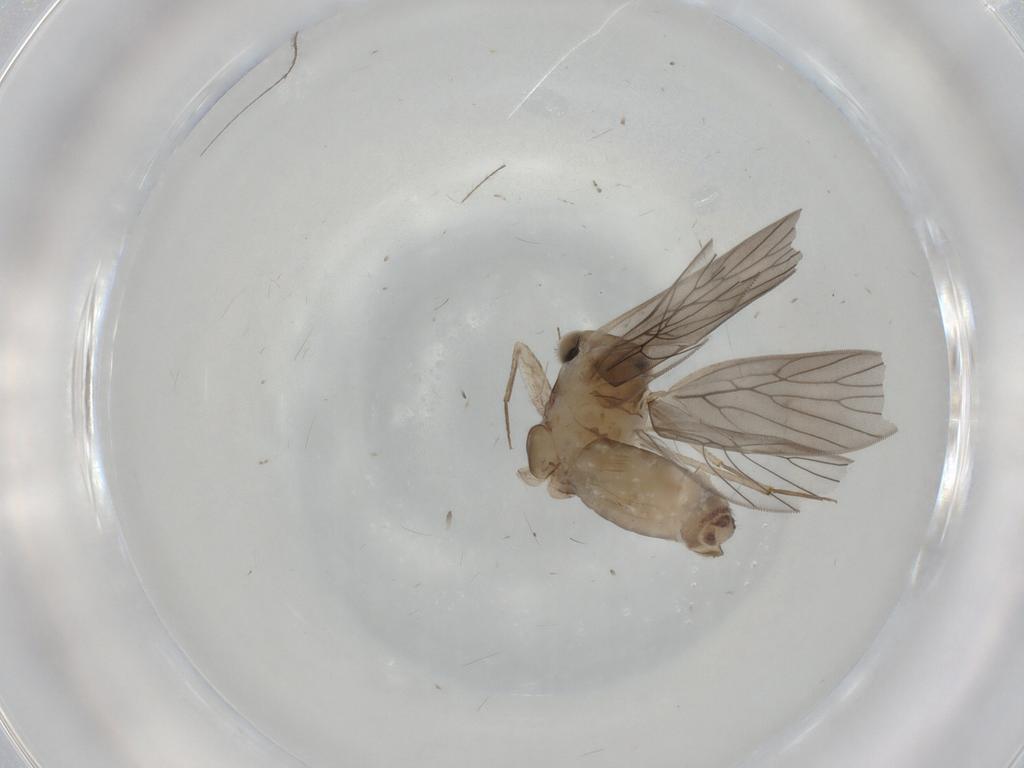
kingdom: Animalia
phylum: Arthropoda
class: Insecta
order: Psocodea
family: Lepidopsocidae
